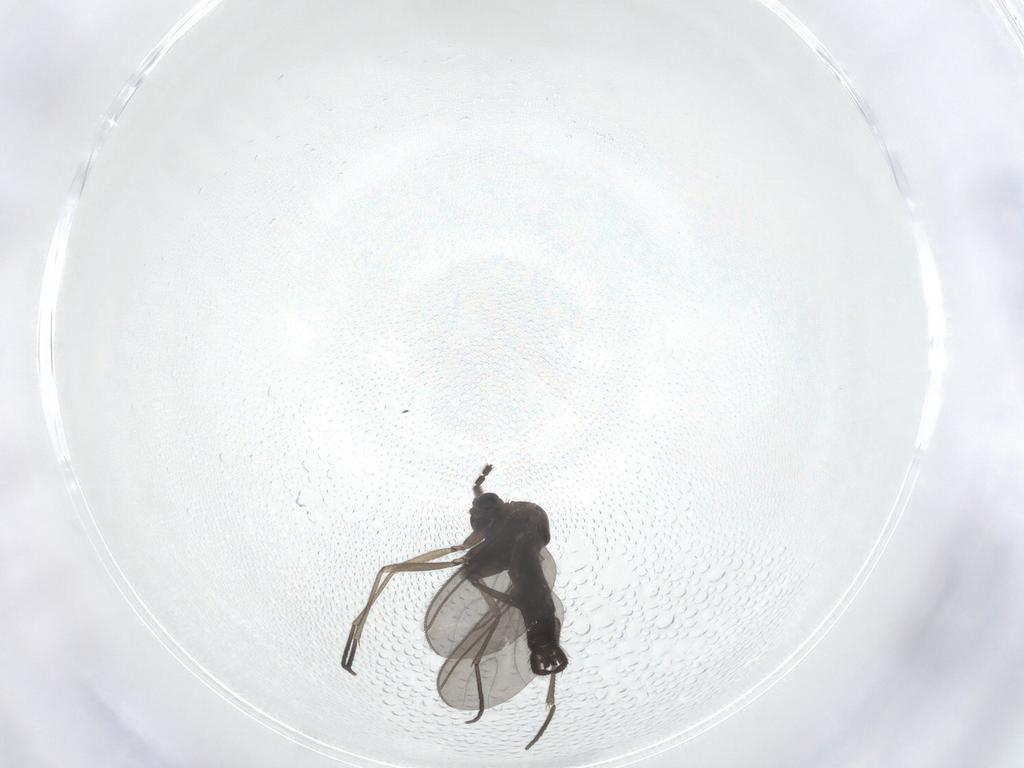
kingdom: Animalia
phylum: Arthropoda
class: Insecta
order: Diptera
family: Sciaridae
